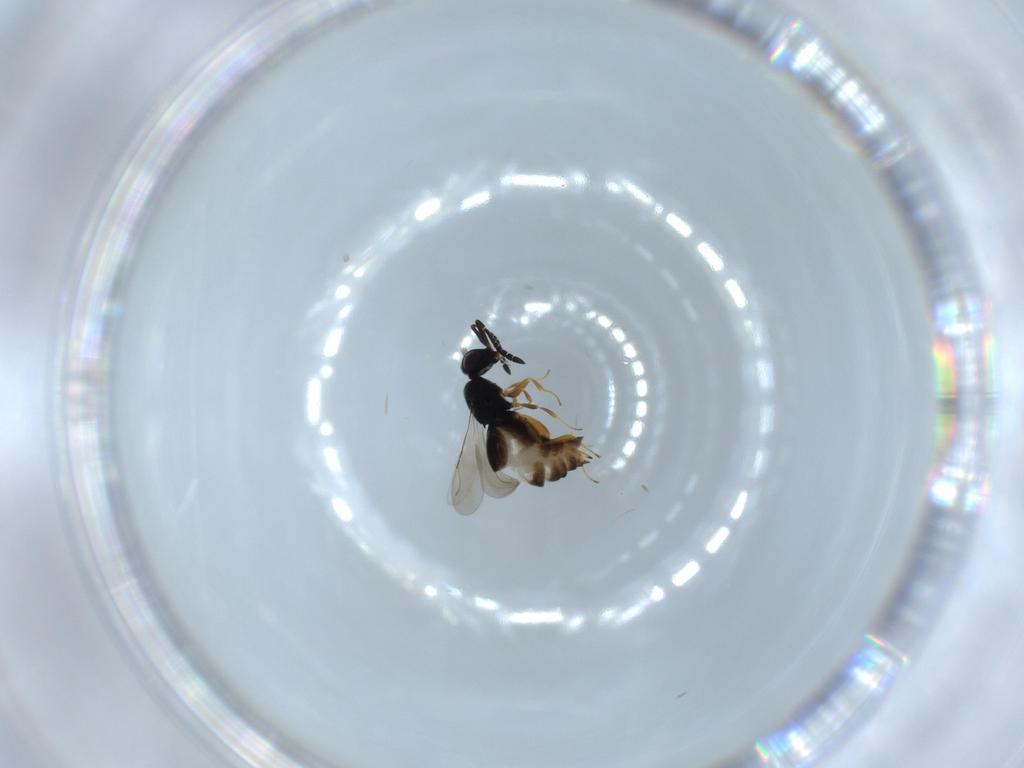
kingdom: Animalia
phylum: Arthropoda
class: Insecta
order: Hymenoptera
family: Ceraphronidae
